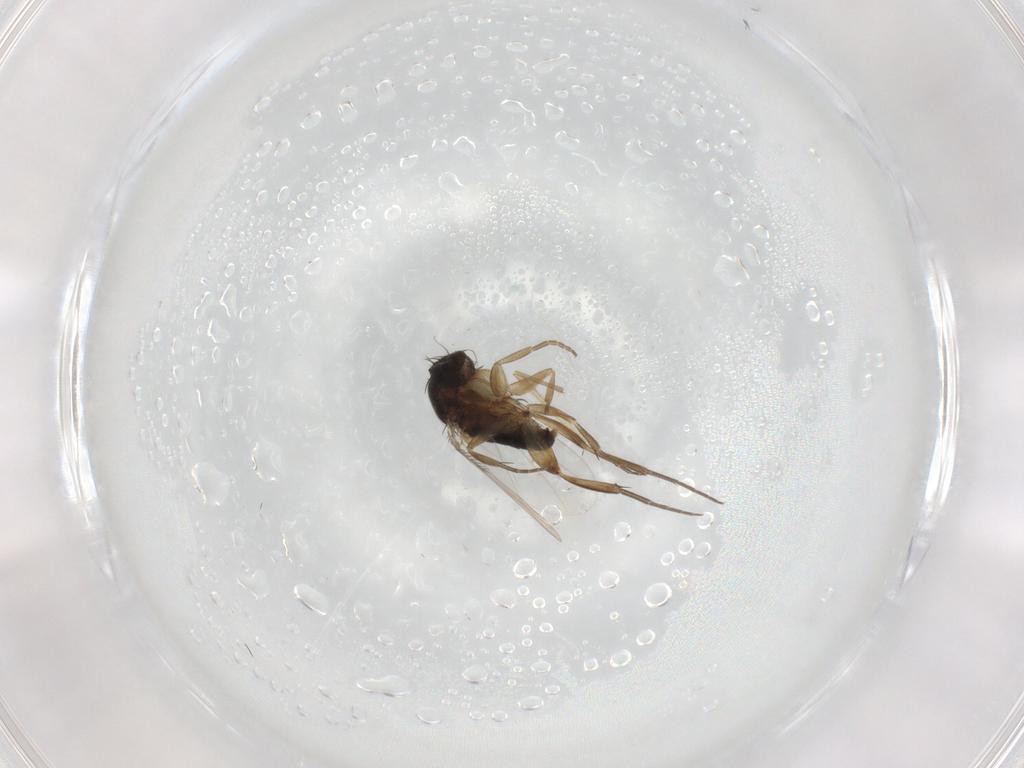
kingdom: Animalia
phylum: Arthropoda
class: Insecta
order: Diptera
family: Phoridae
